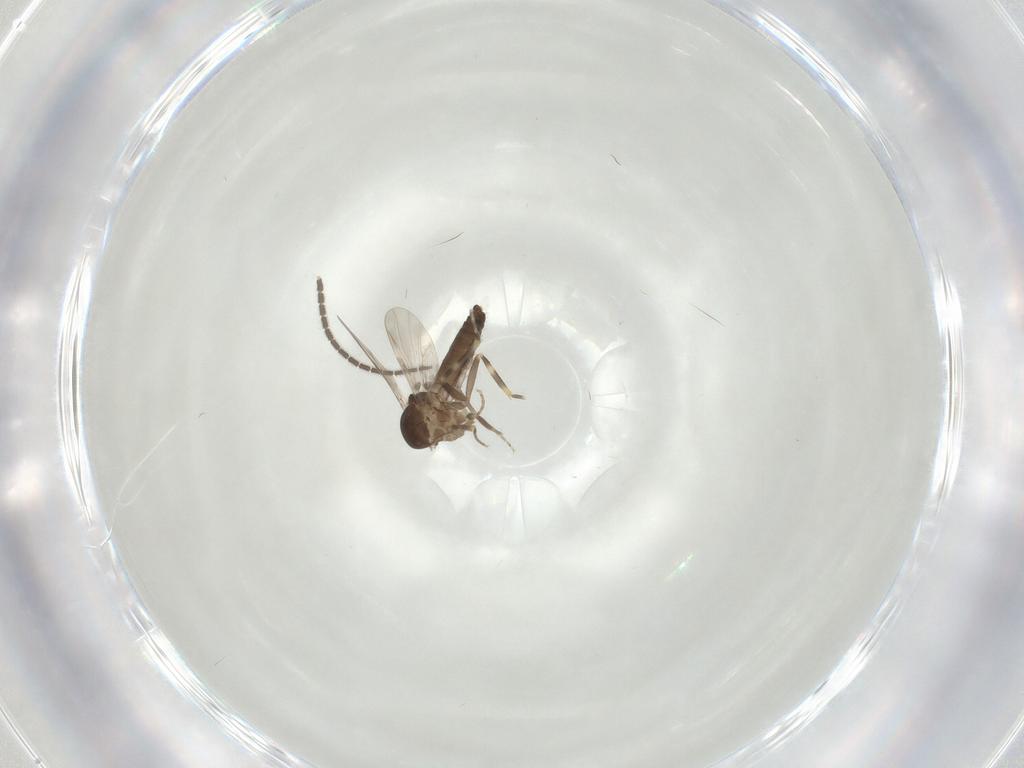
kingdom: Animalia
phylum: Arthropoda
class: Insecta
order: Diptera
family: Ceratopogonidae
